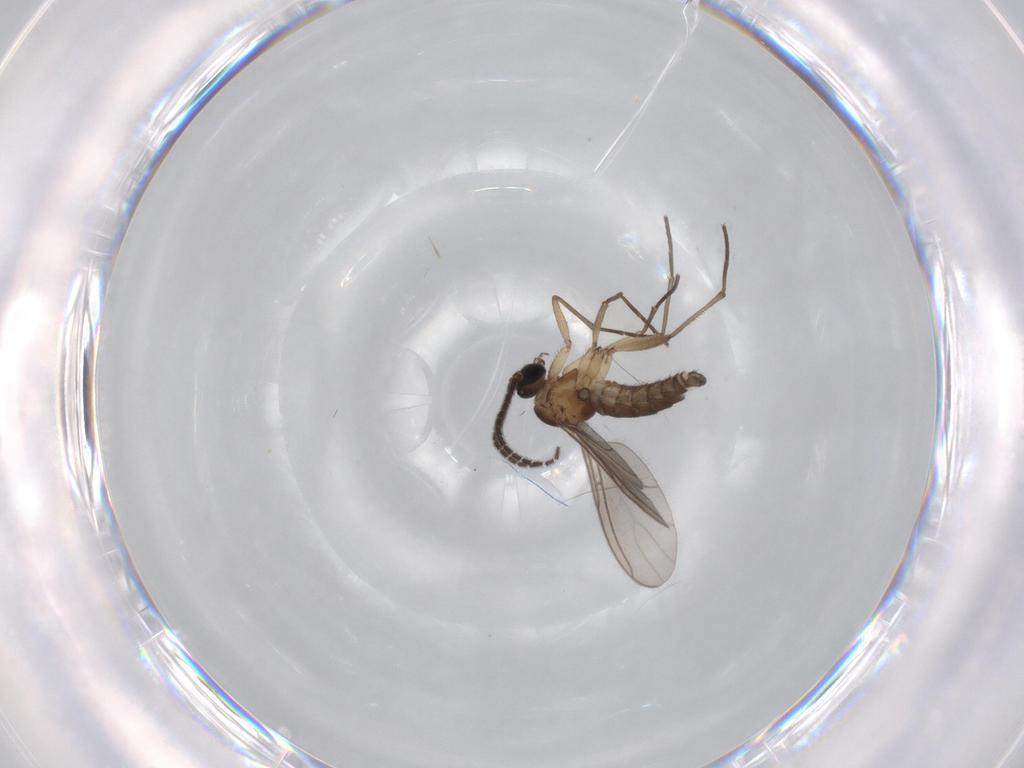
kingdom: Animalia
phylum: Arthropoda
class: Insecta
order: Diptera
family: Sciaridae
